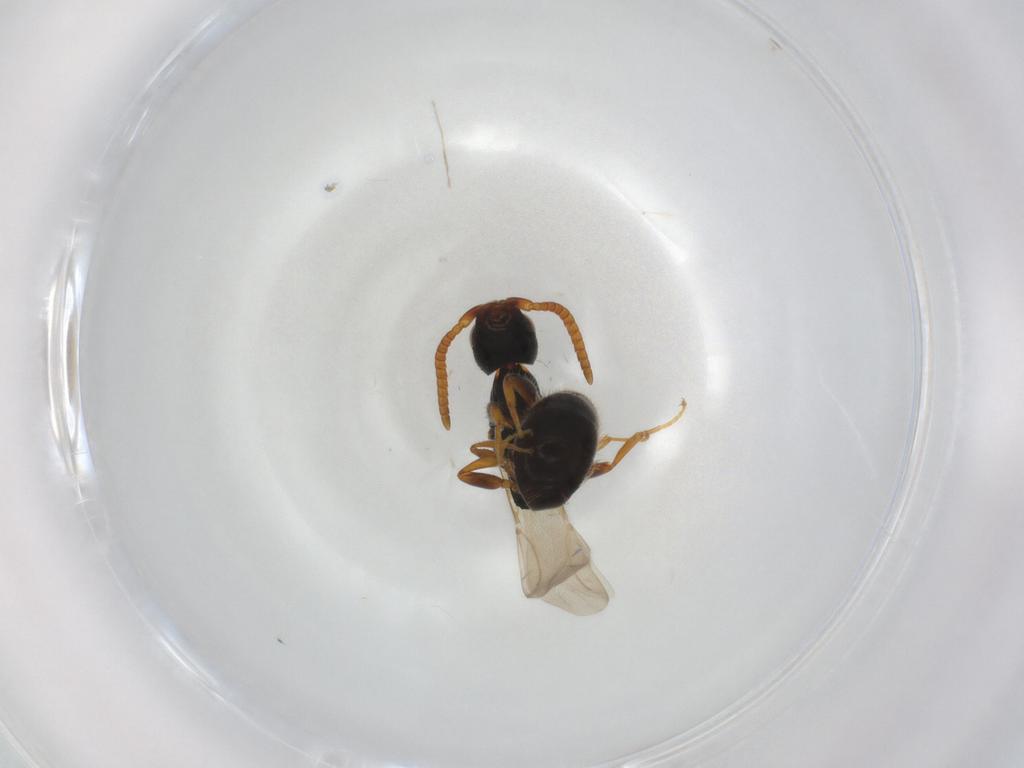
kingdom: Animalia
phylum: Arthropoda
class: Insecta
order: Hymenoptera
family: Bethylidae
